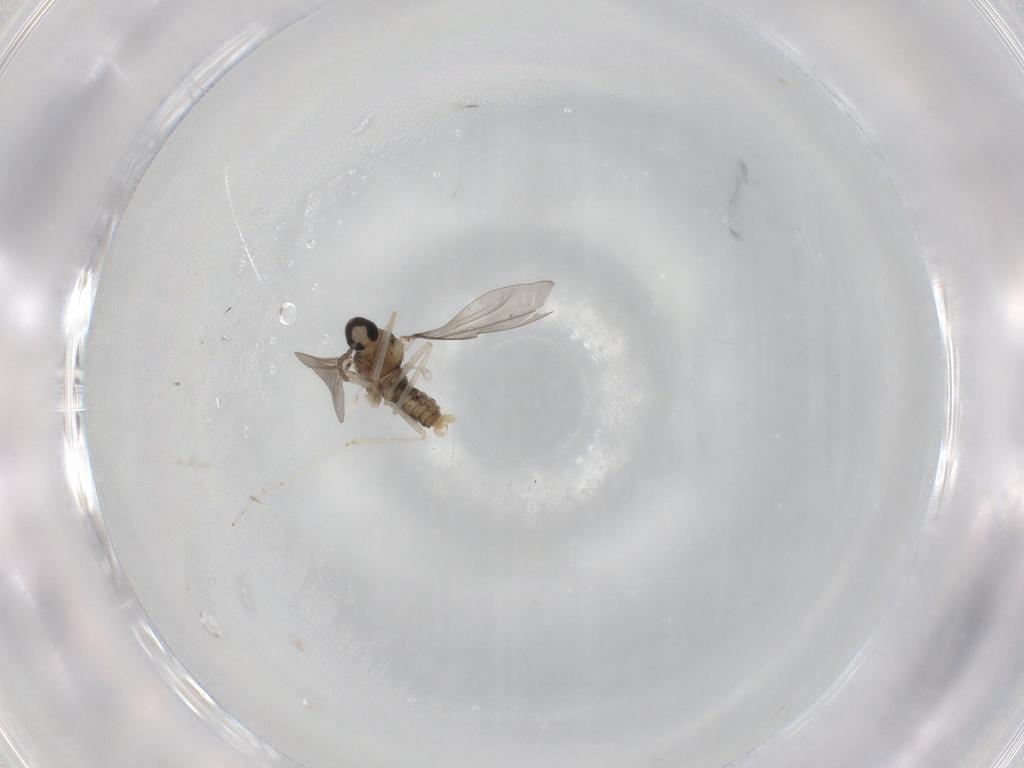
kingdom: Animalia
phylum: Arthropoda
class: Insecta
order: Diptera
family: Cecidomyiidae
